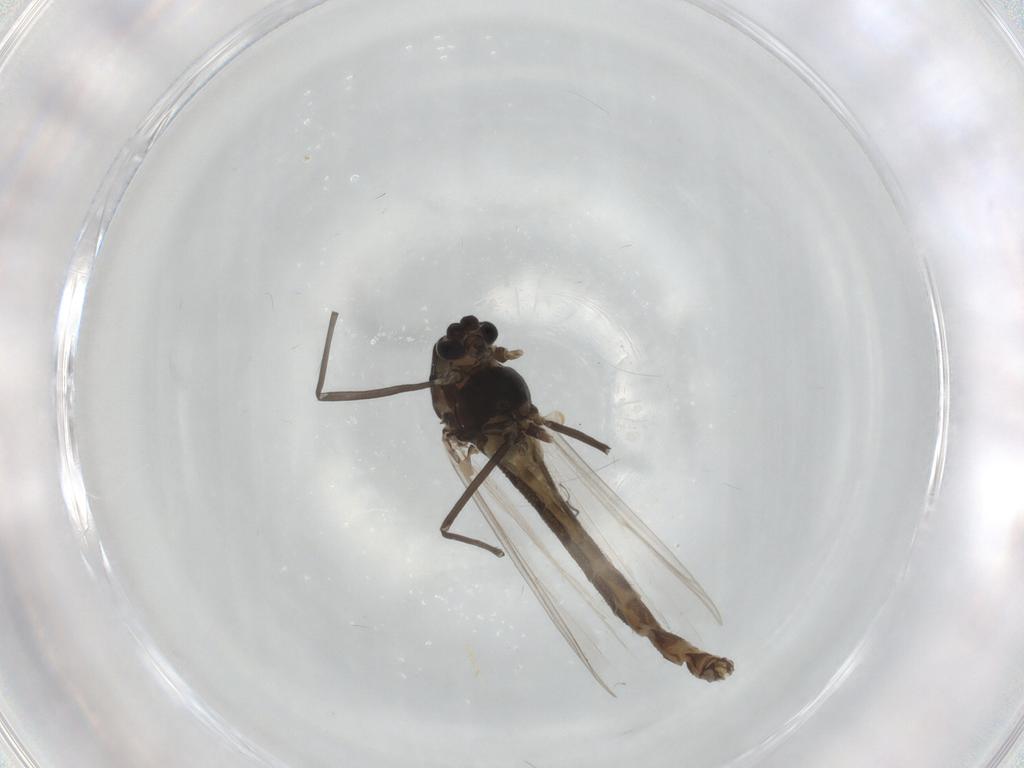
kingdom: Animalia
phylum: Arthropoda
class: Insecta
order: Diptera
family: Chironomidae
